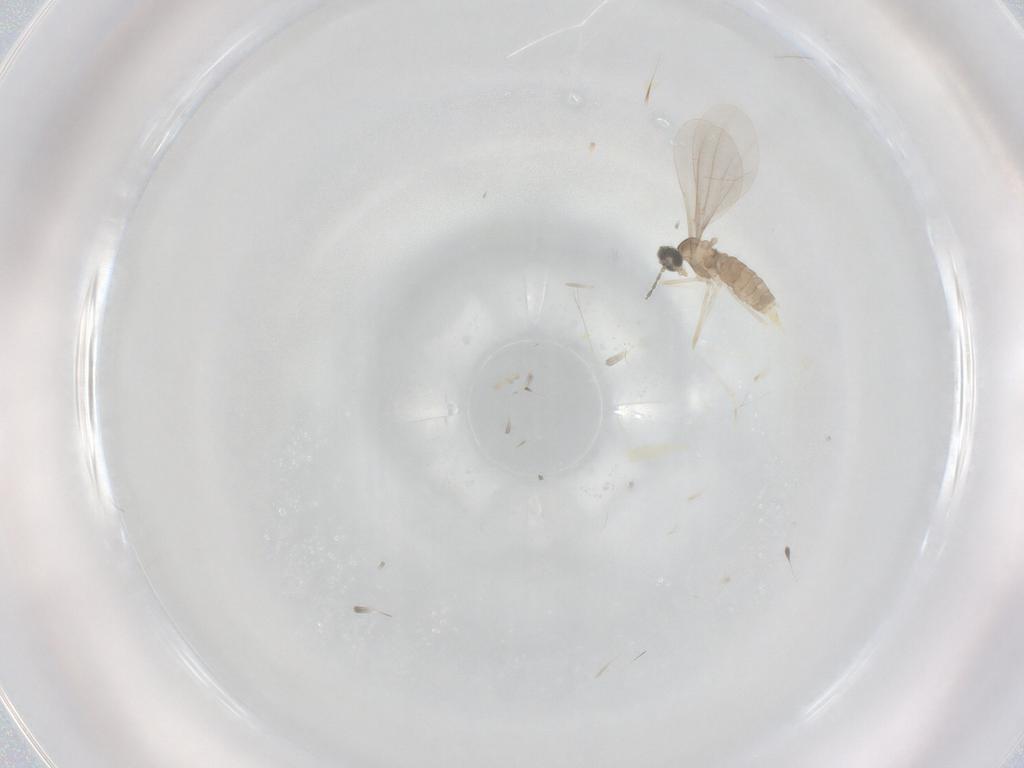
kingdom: Animalia
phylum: Arthropoda
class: Insecta
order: Diptera
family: Cecidomyiidae
